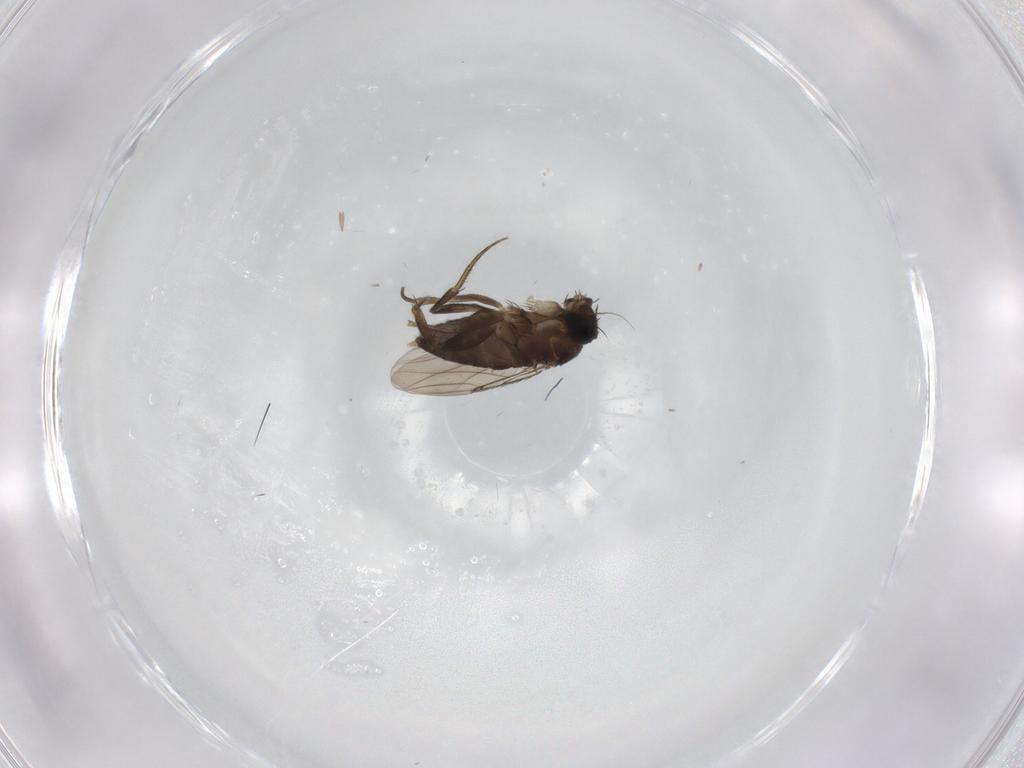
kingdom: Animalia
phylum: Arthropoda
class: Insecta
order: Diptera
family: Phoridae
